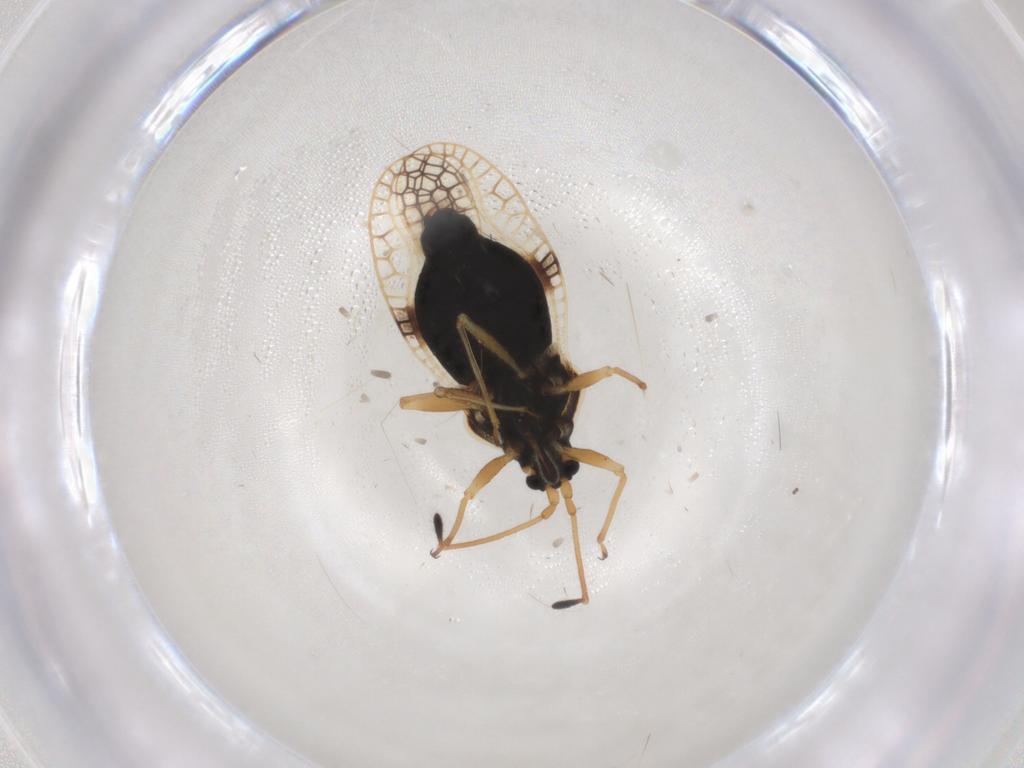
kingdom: Animalia
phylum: Arthropoda
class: Insecta
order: Hemiptera
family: Tingidae
